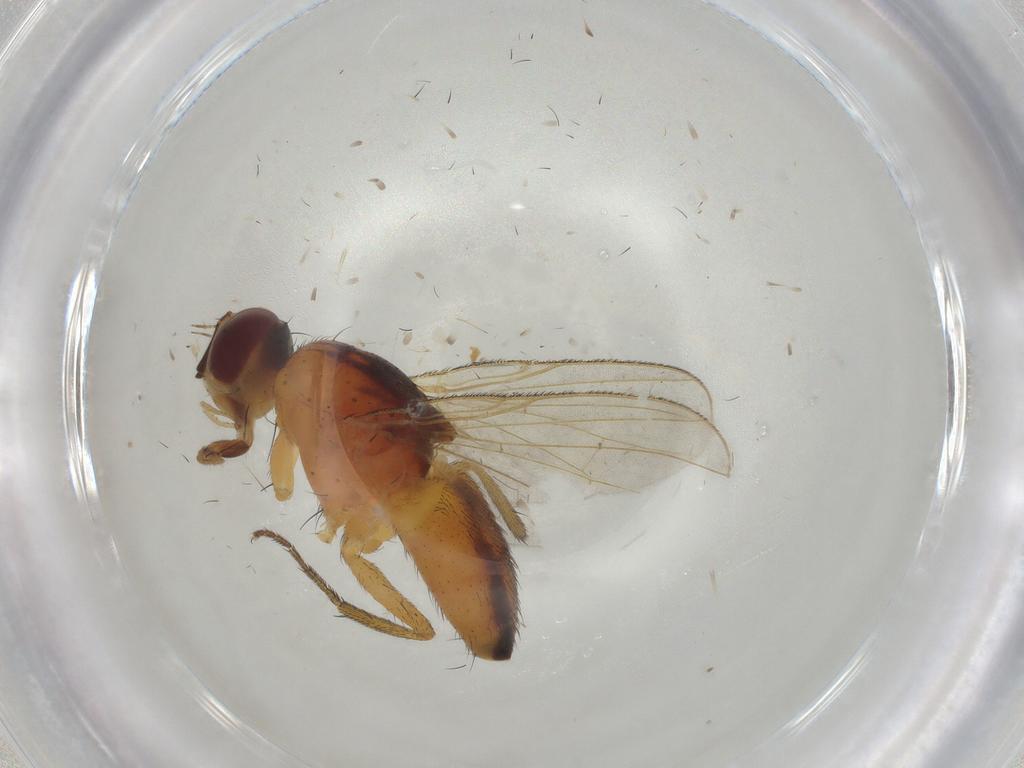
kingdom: Animalia
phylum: Arthropoda
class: Insecta
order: Diptera
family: Muscidae
